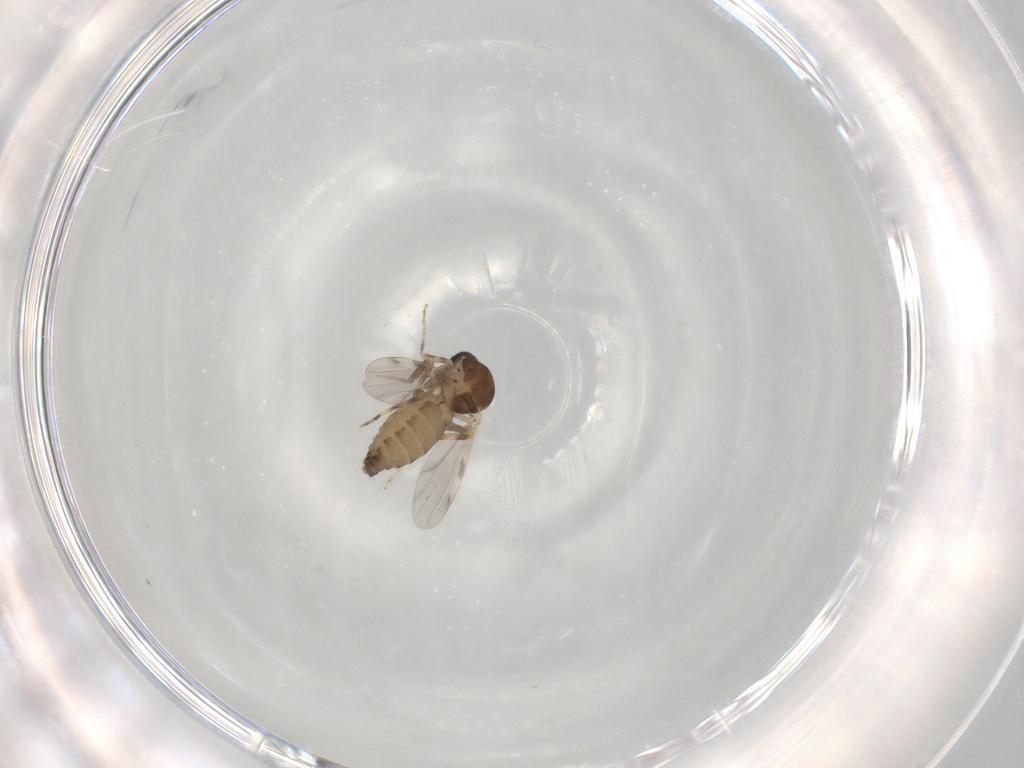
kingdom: Animalia
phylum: Arthropoda
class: Insecta
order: Diptera
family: Ceratopogonidae
